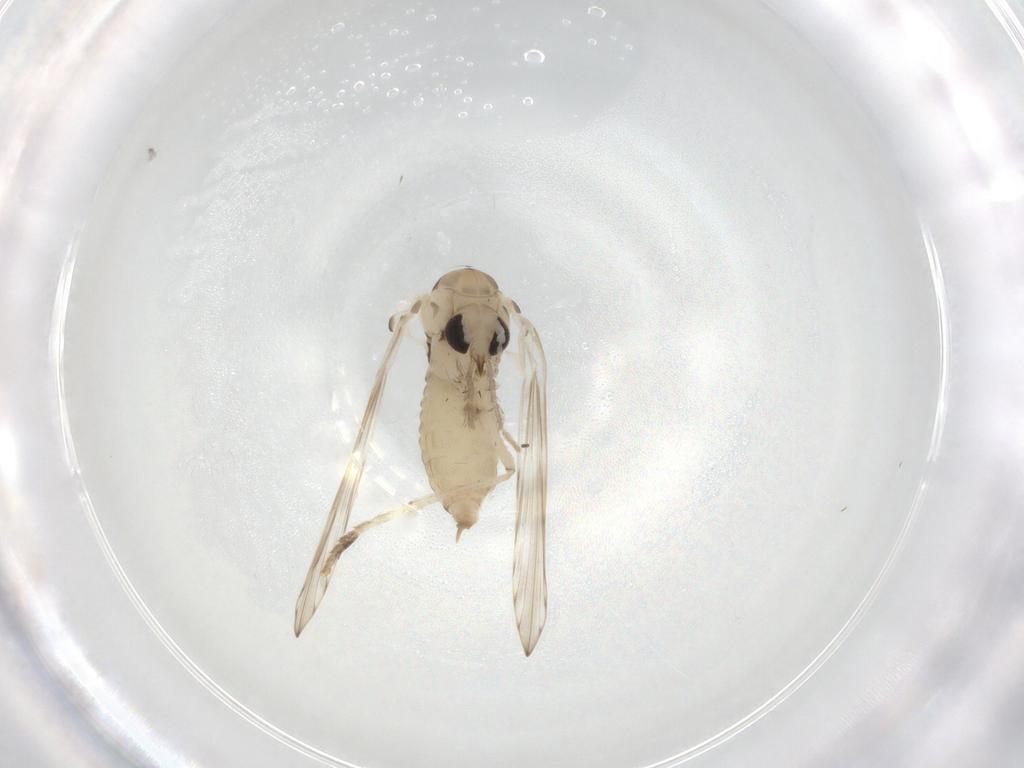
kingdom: Animalia
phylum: Arthropoda
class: Insecta
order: Diptera
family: Cecidomyiidae
